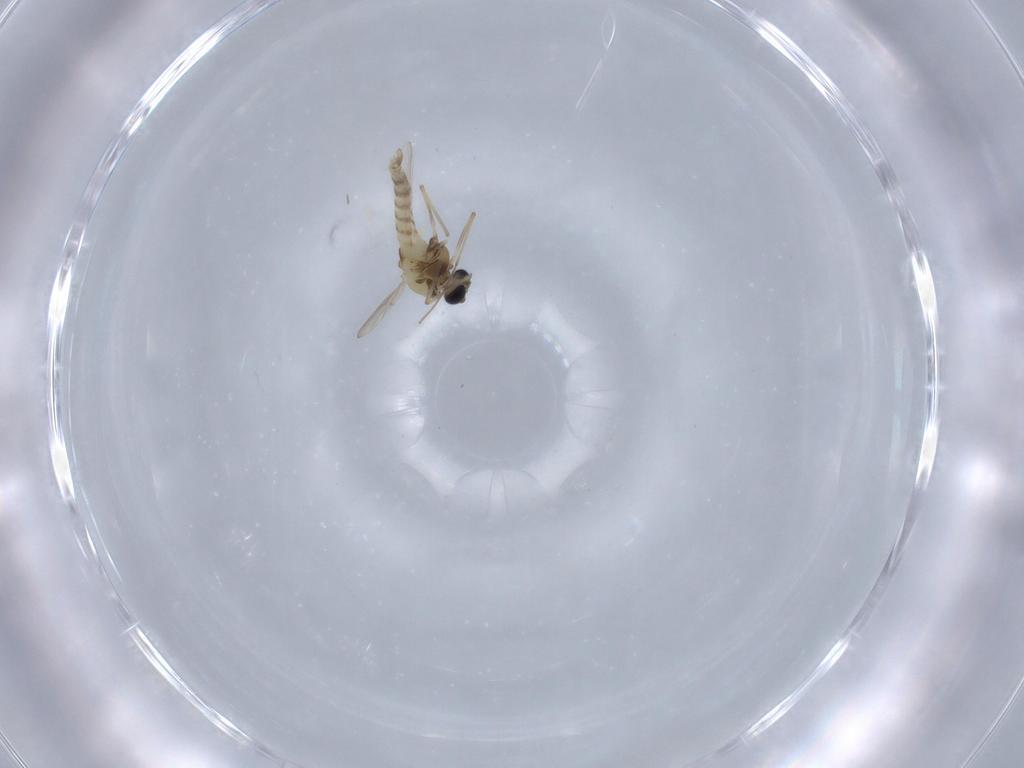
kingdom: Animalia
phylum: Arthropoda
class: Insecta
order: Diptera
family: Chironomidae
